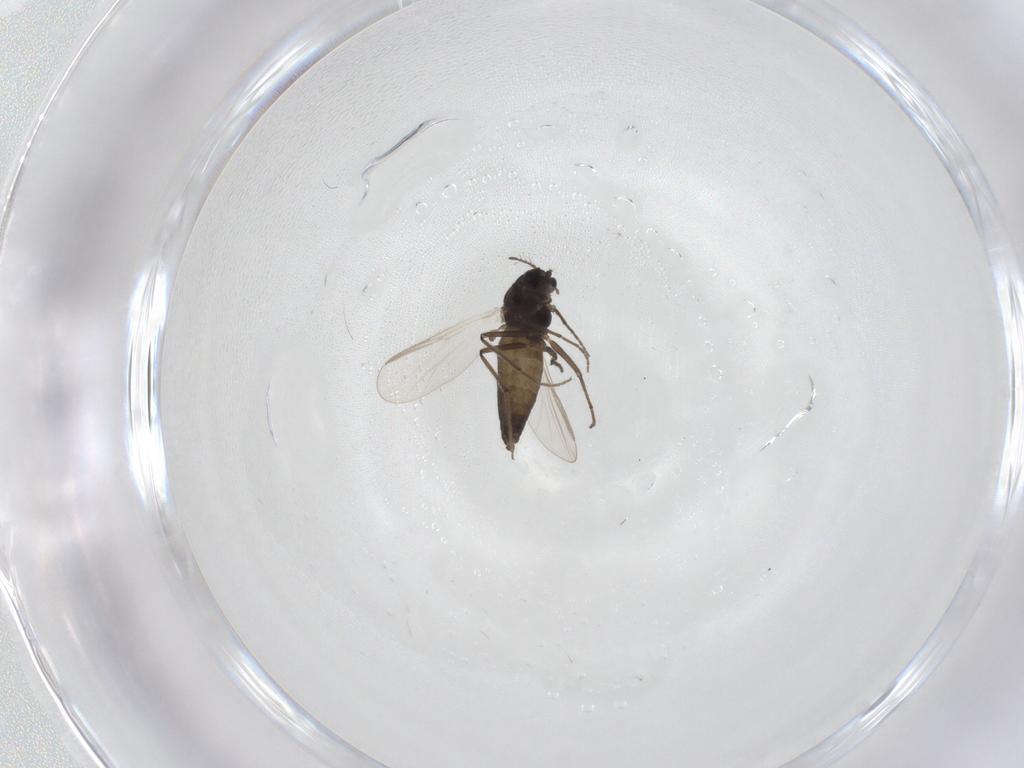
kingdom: Animalia
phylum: Arthropoda
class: Insecta
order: Diptera
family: Chironomidae
